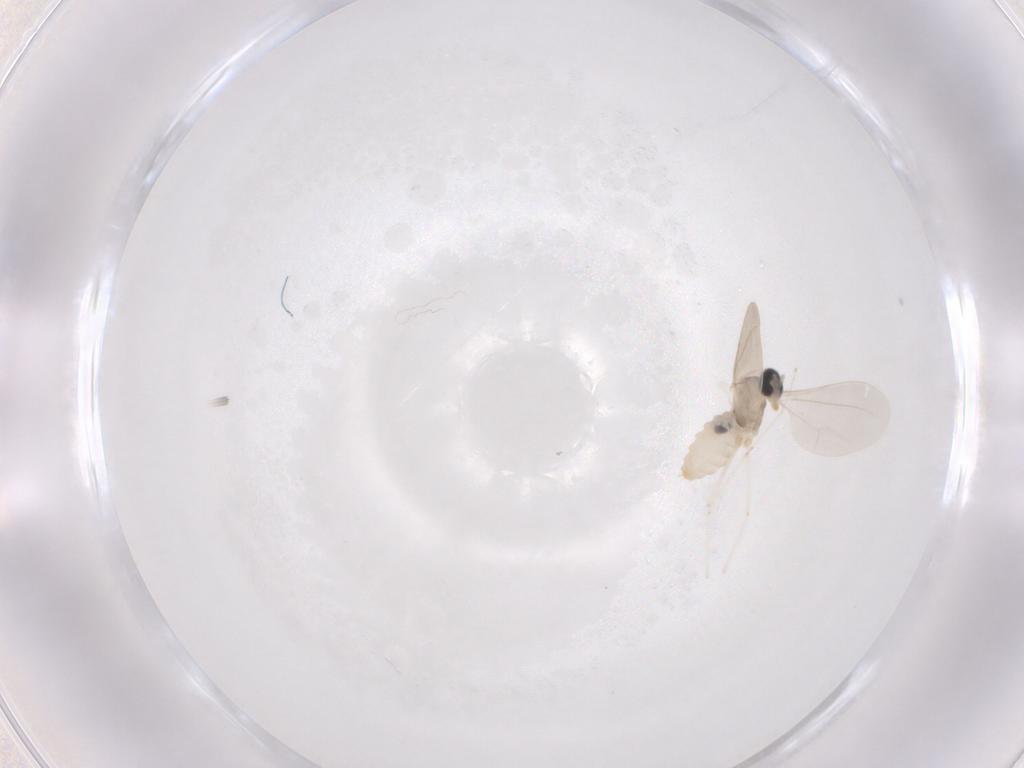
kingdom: Animalia
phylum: Arthropoda
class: Insecta
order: Diptera
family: Cecidomyiidae
